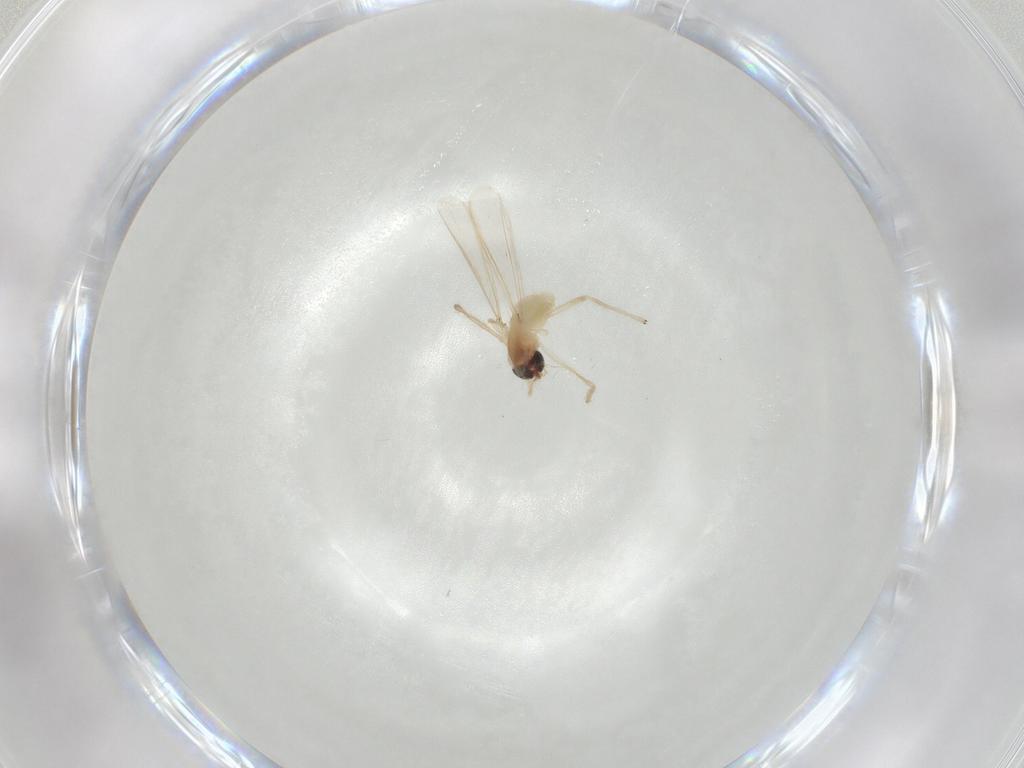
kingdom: Animalia
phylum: Arthropoda
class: Insecta
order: Diptera
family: Chironomidae
